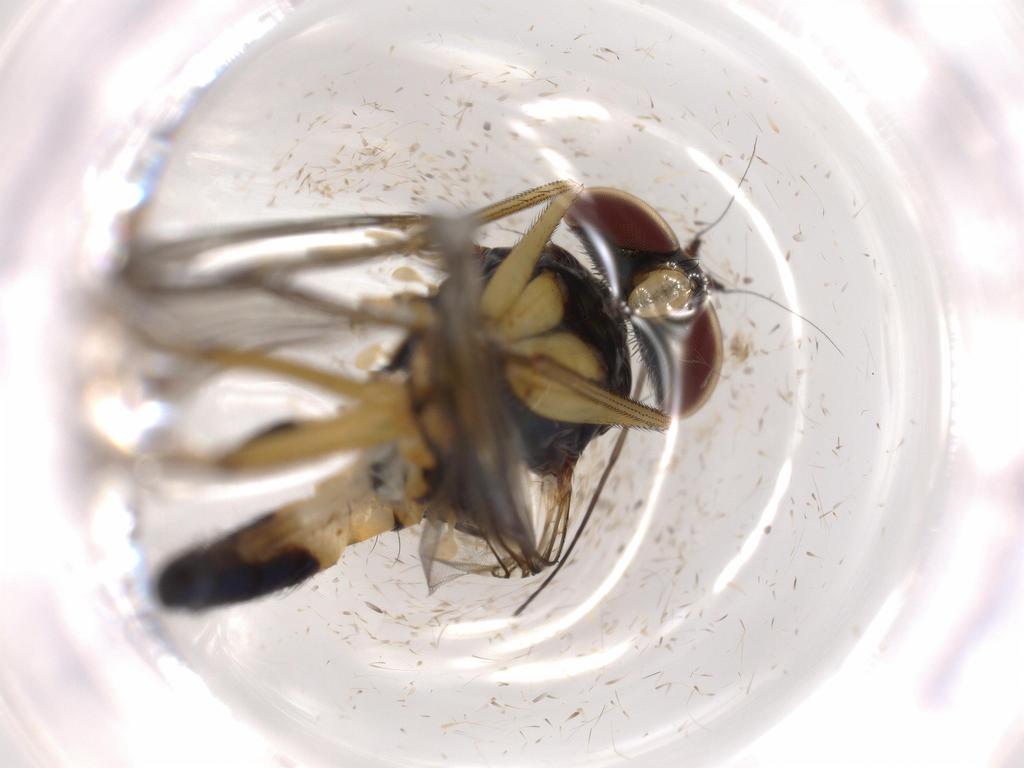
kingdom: Animalia
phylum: Arthropoda
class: Insecta
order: Diptera
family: Dolichopodidae
